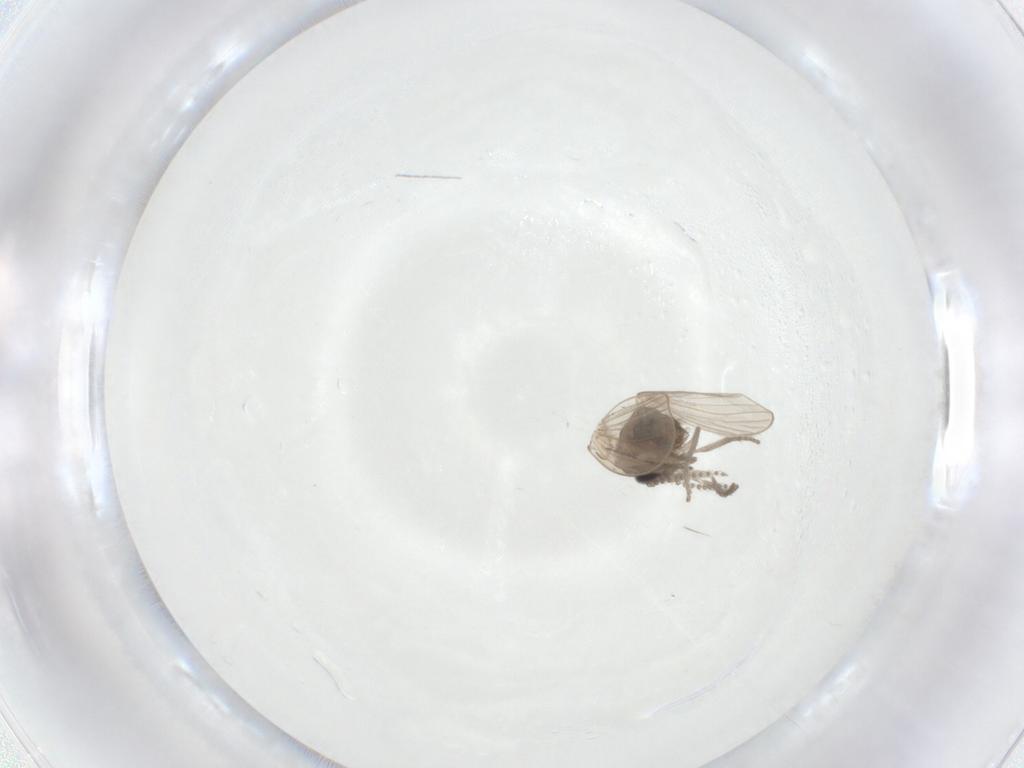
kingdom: Animalia
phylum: Arthropoda
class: Insecta
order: Diptera
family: Psychodidae
